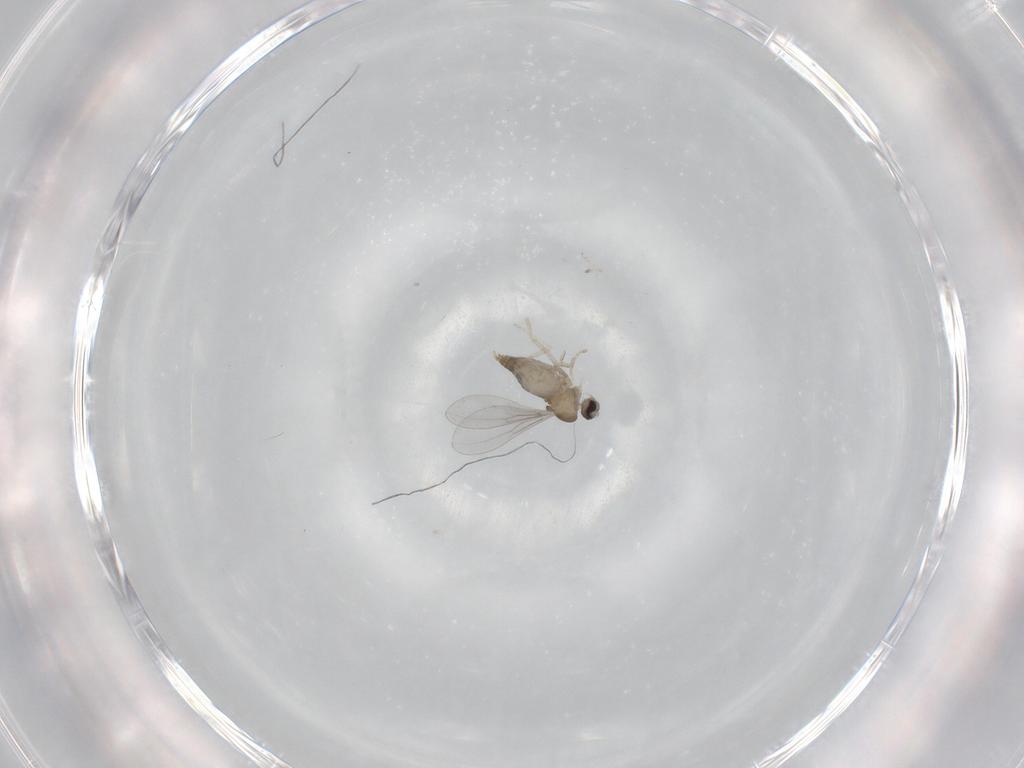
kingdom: Animalia
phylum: Arthropoda
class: Insecta
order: Diptera
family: Cecidomyiidae
